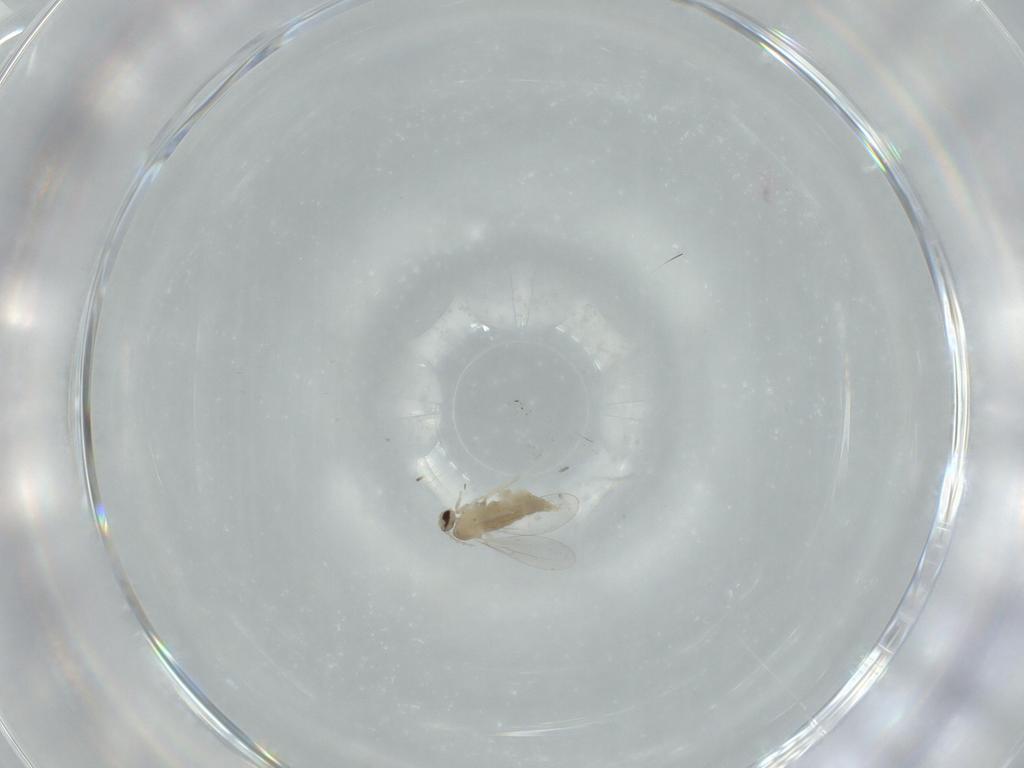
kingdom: Animalia
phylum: Arthropoda
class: Insecta
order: Diptera
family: Cecidomyiidae
